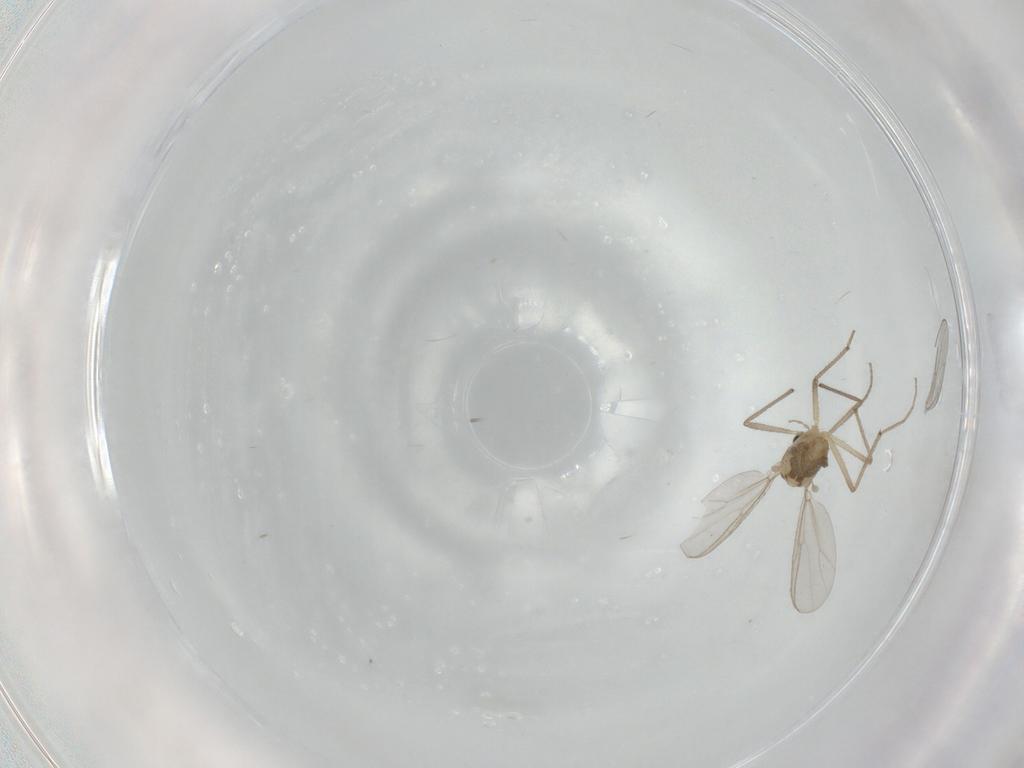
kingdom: Animalia
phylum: Arthropoda
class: Insecta
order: Diptera
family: Chironomidae
